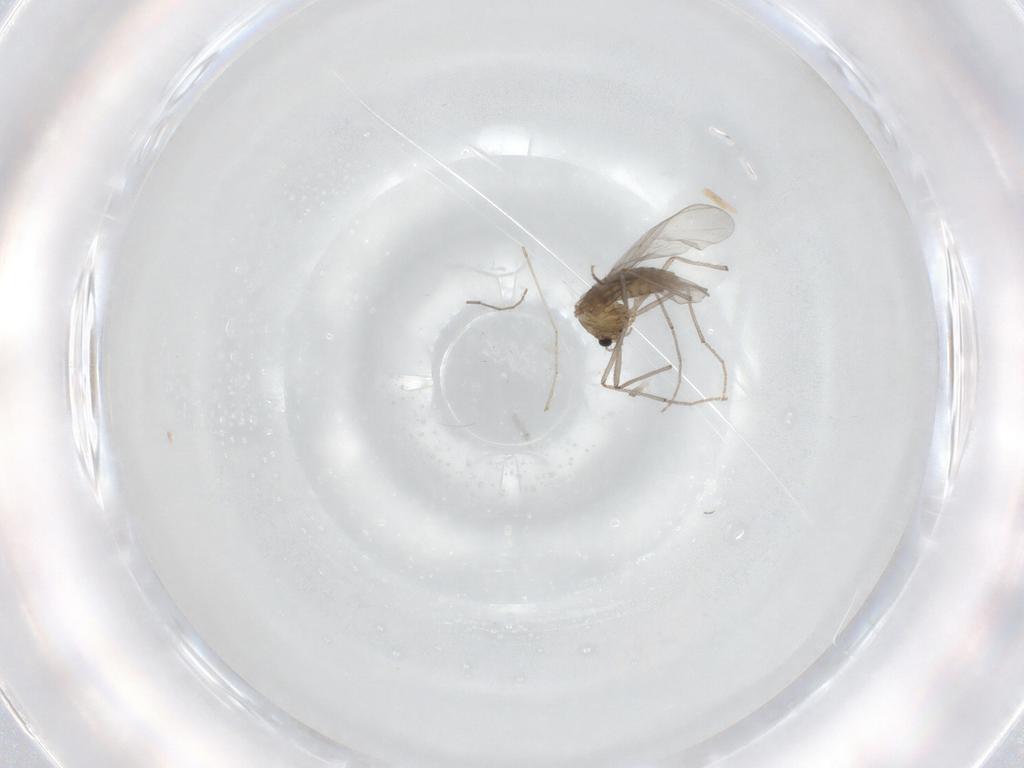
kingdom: Animalia
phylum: Arthropoda
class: Insecta
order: Diptera
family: Chironomidae
